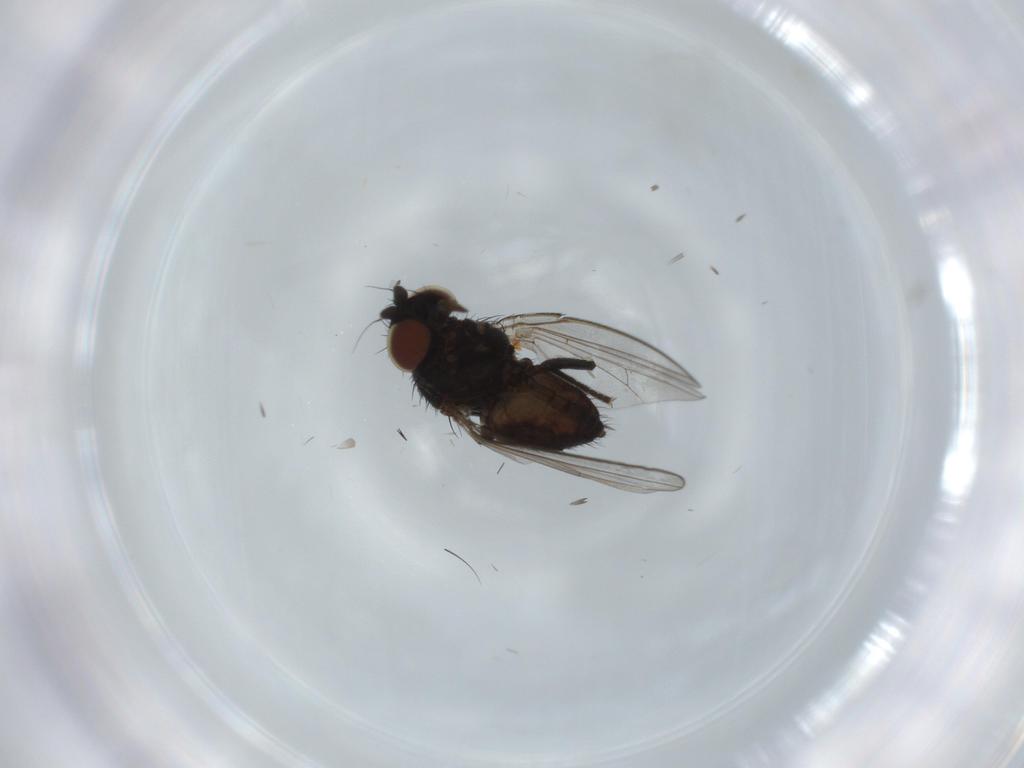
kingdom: Animalia
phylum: Arthropoda
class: Insecta
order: Diptera
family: Milichiidae
